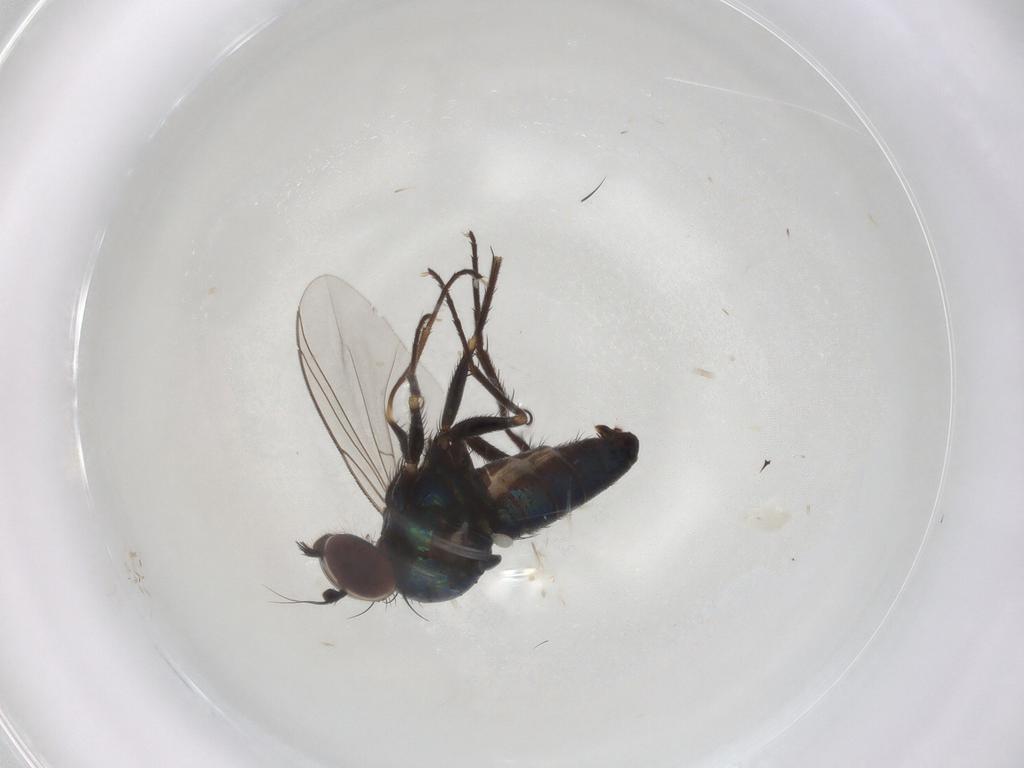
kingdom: Animalia
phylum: Arthropoda
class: Insecta
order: Diptera
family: Dolichopodidae
